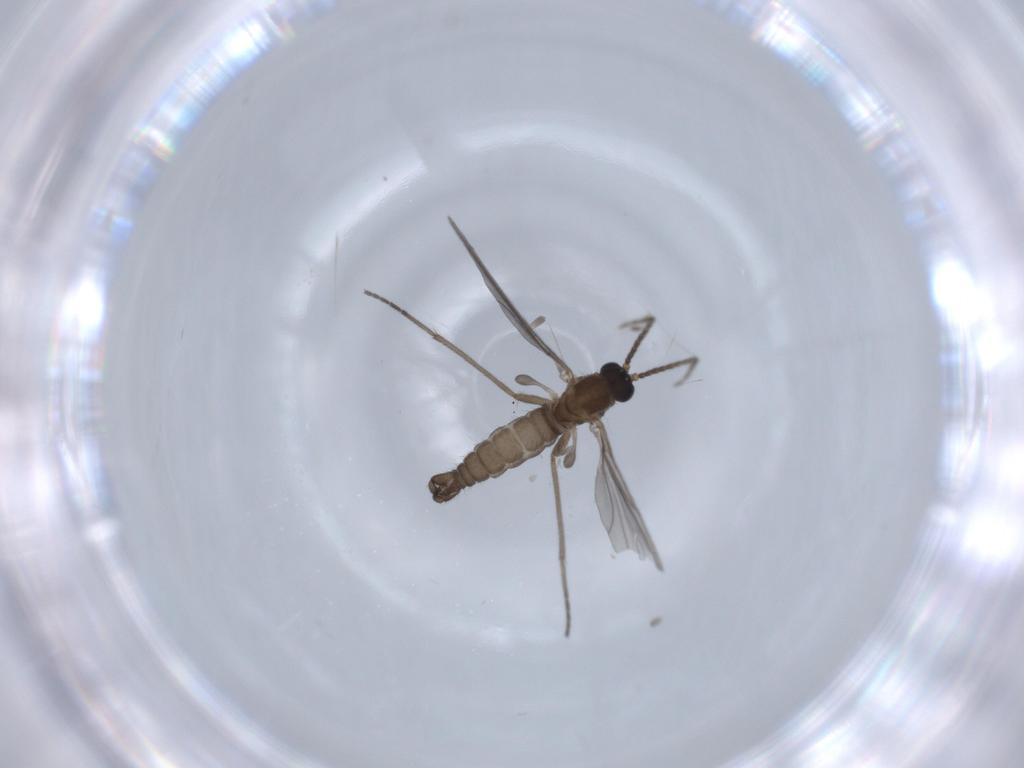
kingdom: Animalia
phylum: Arthropoda
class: Insecta
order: Diptera
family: Sciaridae
